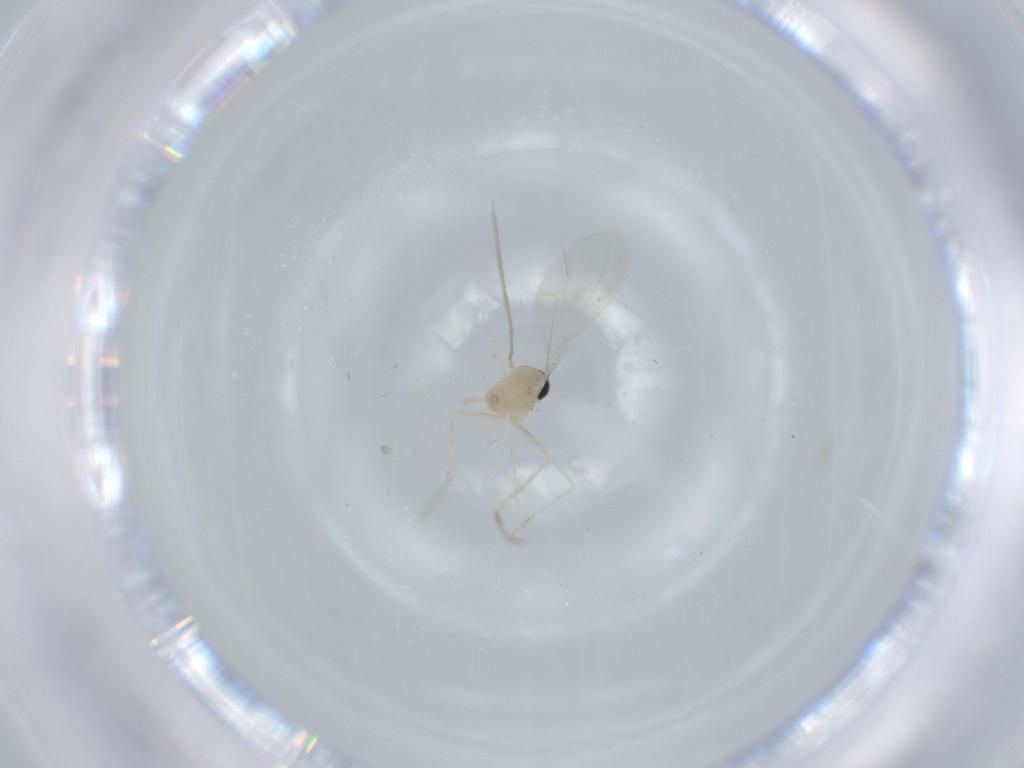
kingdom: Animalia
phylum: Arthropoda
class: Insecta
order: Diptera
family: Cecidomyiidae
